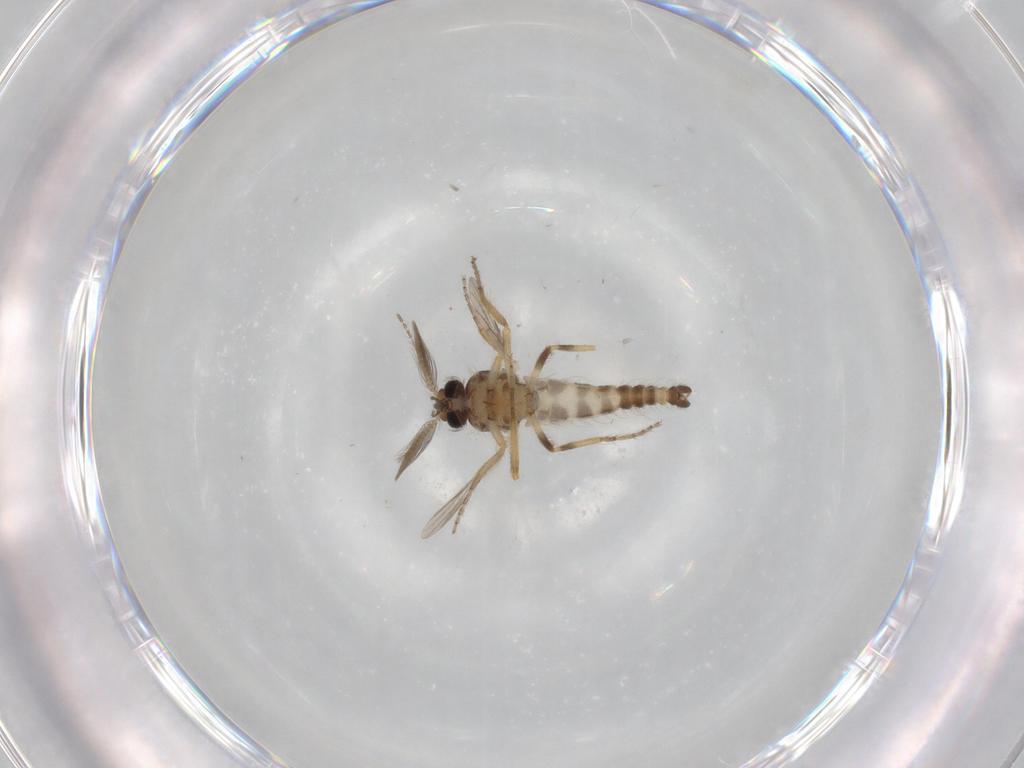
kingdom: Animalia
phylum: Arthropoda
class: Insecta
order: Diptera
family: Ceratopogonidae
